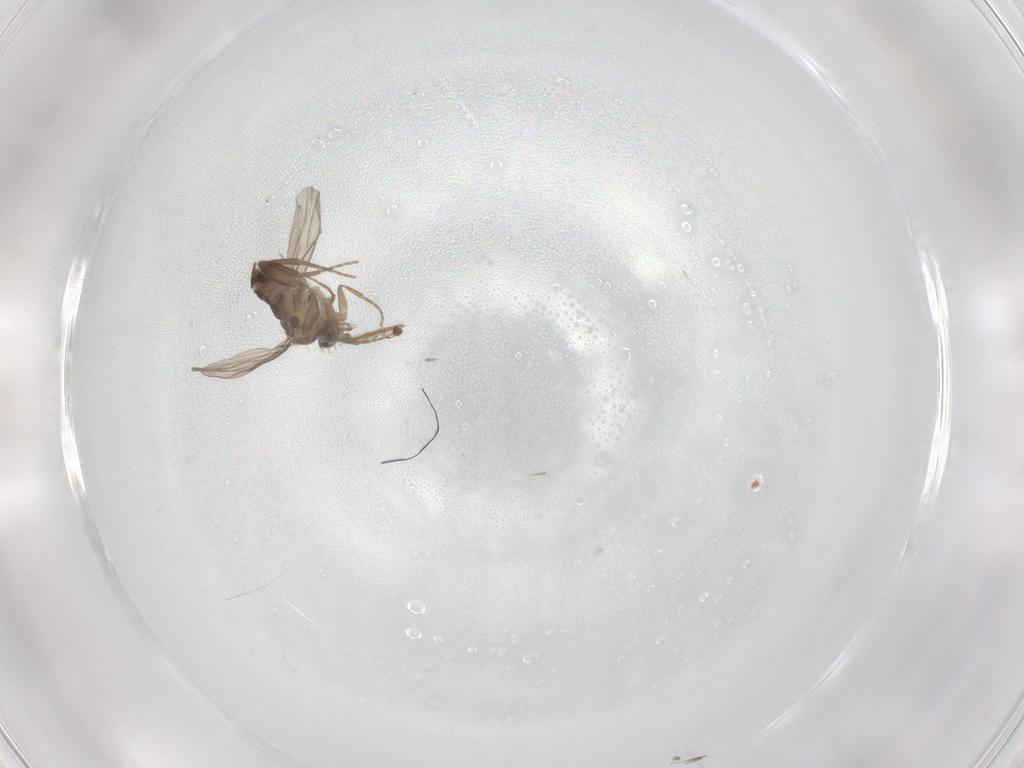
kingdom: Animalia
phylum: Arthropoda
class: Insecta
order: Diptera
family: Phoridae
